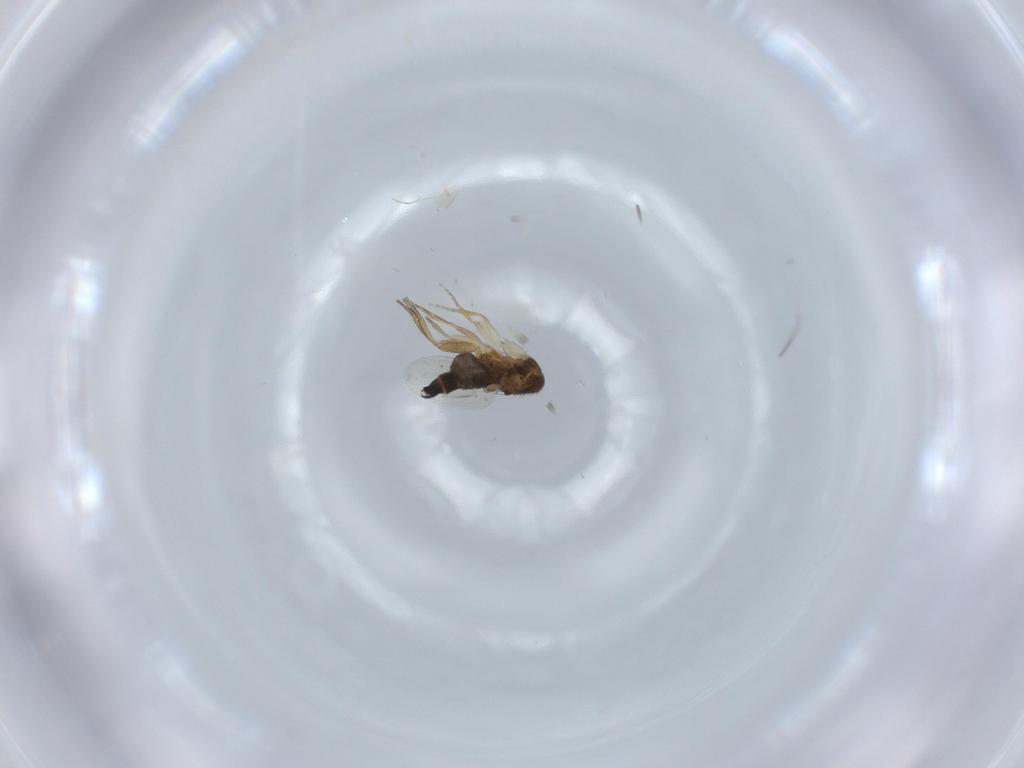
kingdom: Animalia
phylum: Arthropoda
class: Insecta
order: Diptera
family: Phoridae
